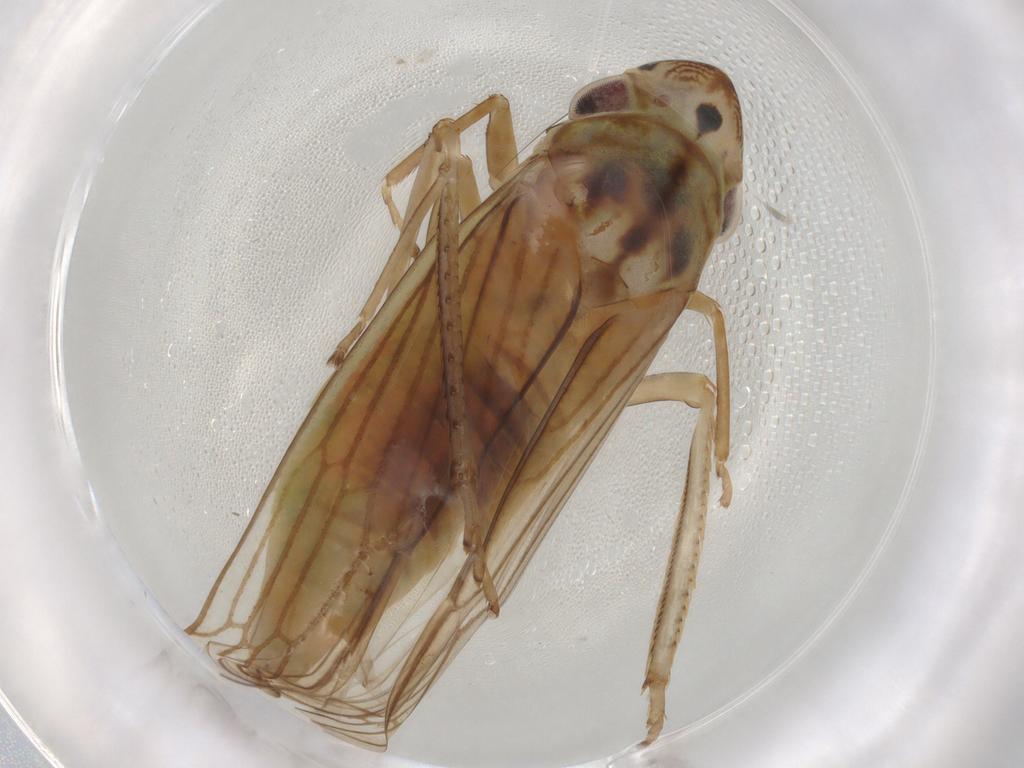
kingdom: Animalia
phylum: Arthropoda
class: Insecta
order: Hemiptera
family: Cicadellidae
